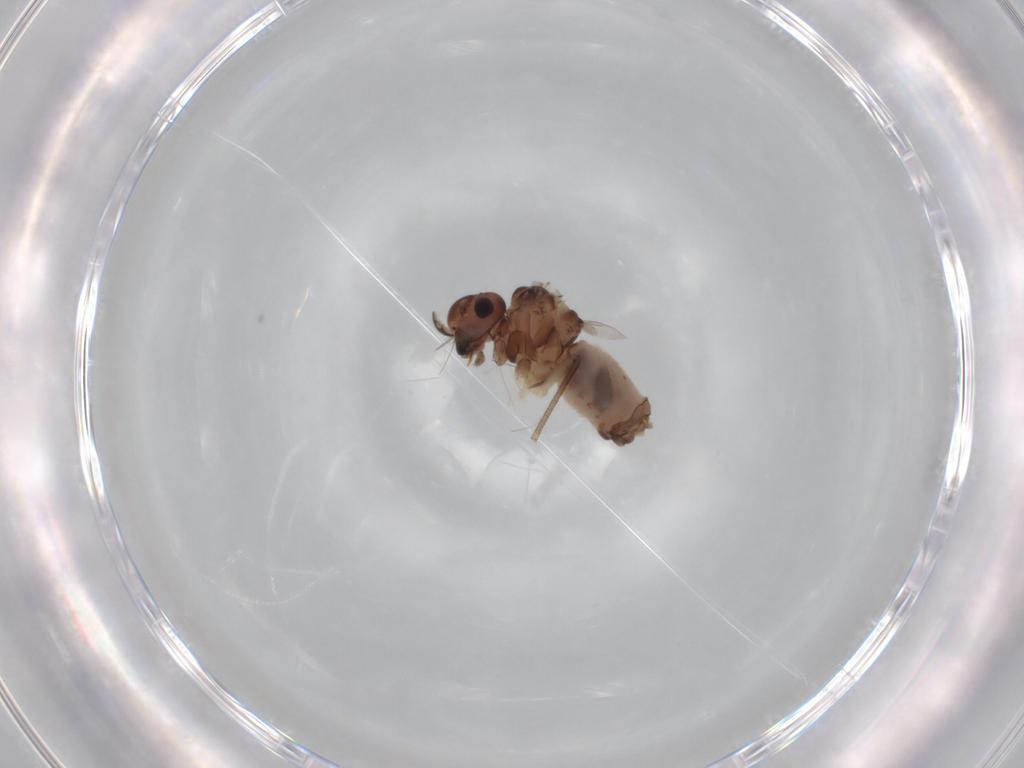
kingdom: Animalia
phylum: Arthropoda
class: Insecta
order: Psocodea
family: Peripsocidae
